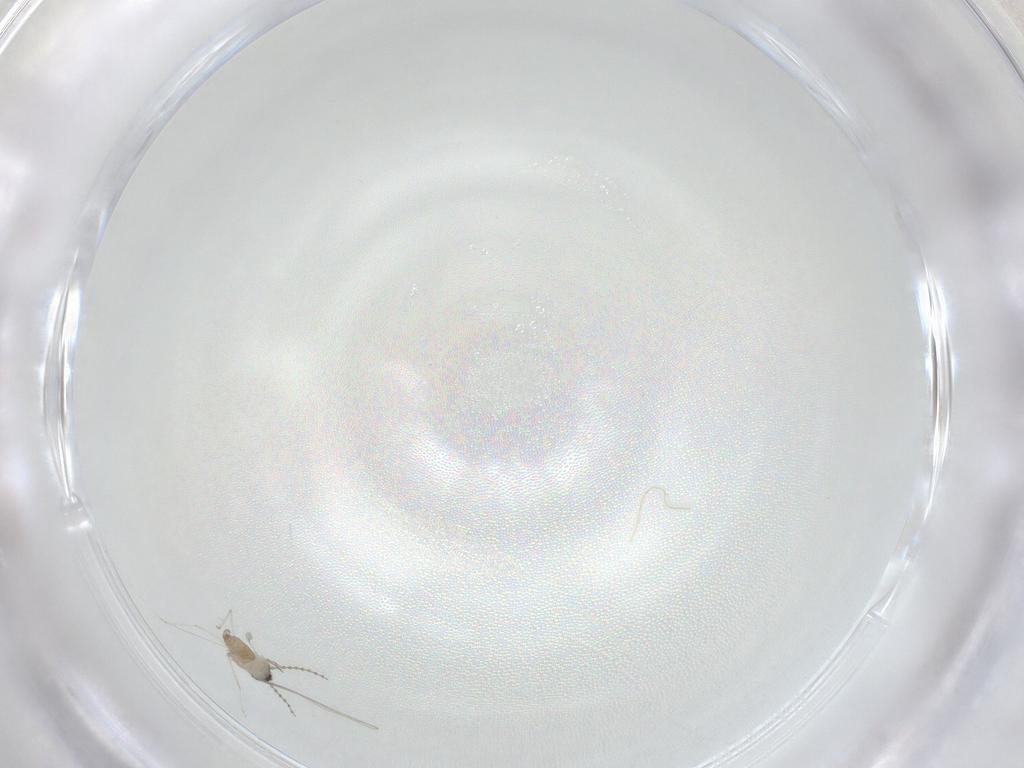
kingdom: Animalia
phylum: Arthropoda
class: Insecta
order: Diptera
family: Cecidomyiidae
